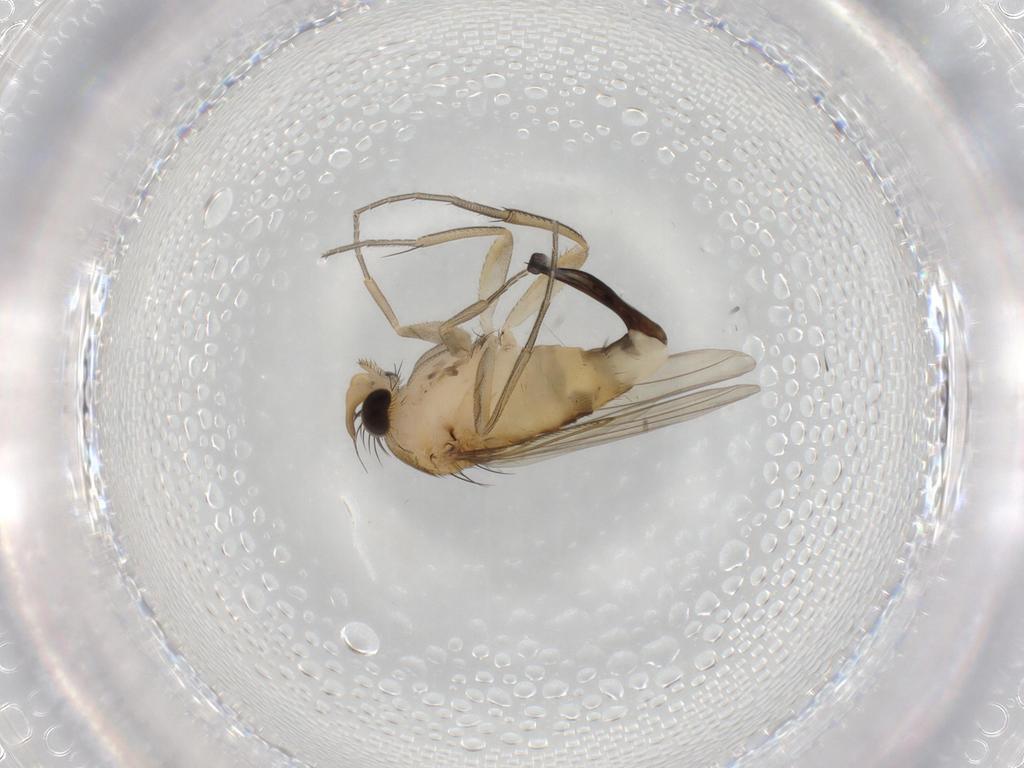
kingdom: Animalia
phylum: Arthropoda
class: Insecta
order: Diptera
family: Phoridae
